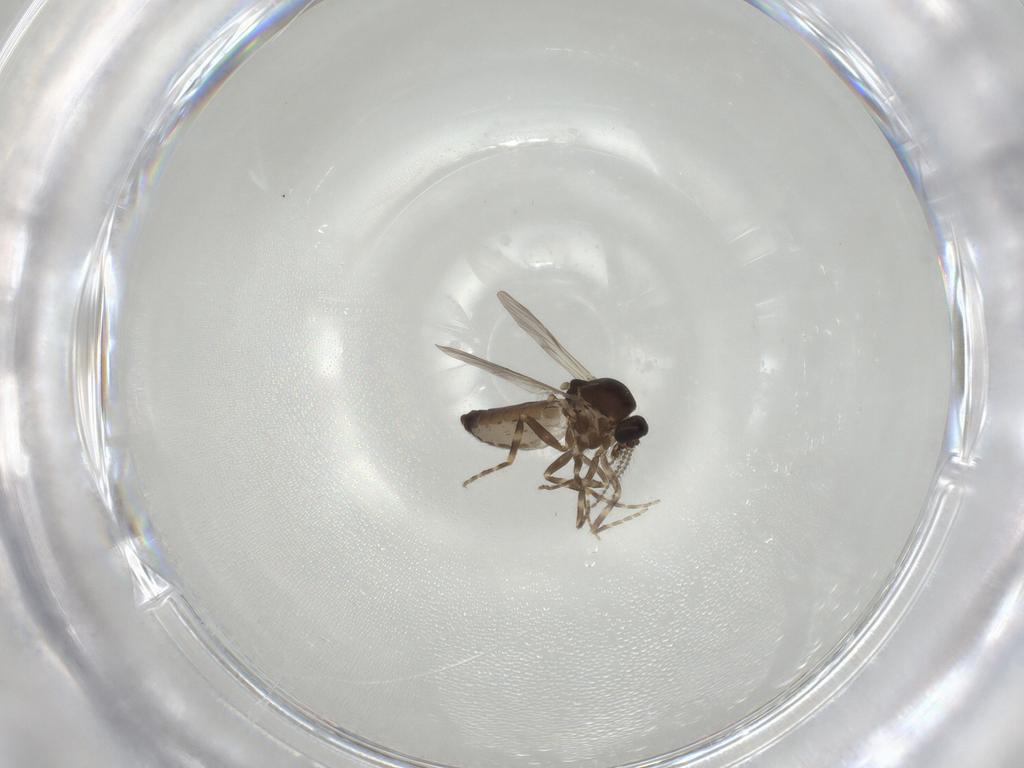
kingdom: Animalia
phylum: Arthropoda
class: Insecta
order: Diptera
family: Ceratopogonidae
